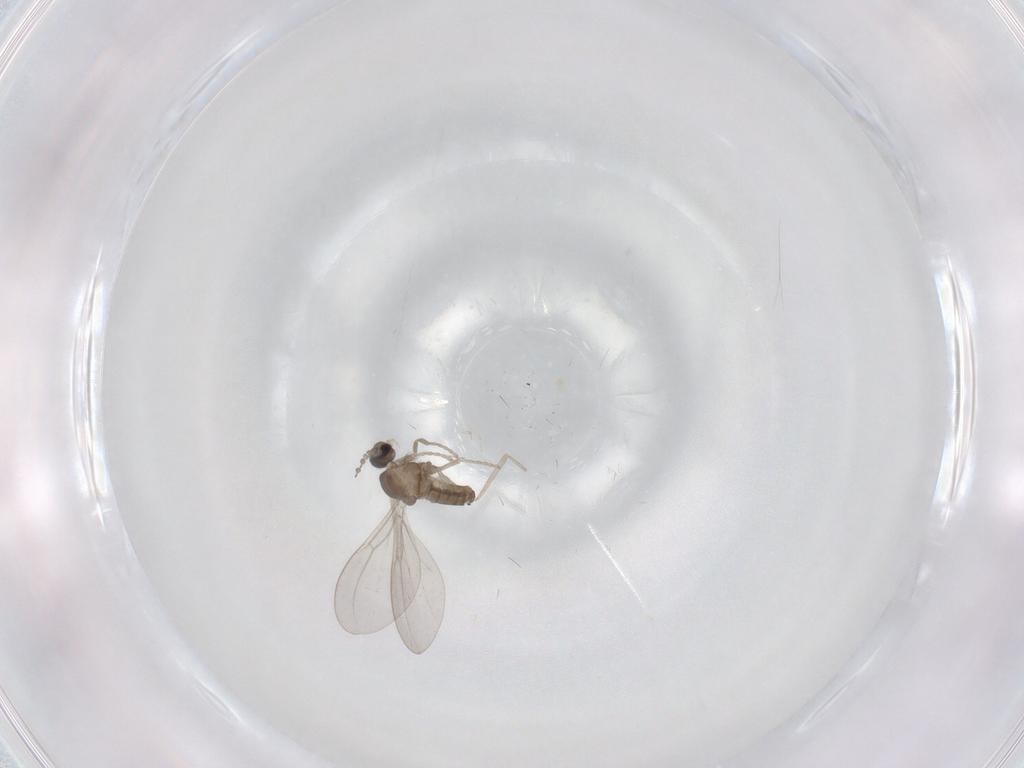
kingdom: Animalia
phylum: Arthropoda
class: Insecta
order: Diptera
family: Cecidomyiidae
